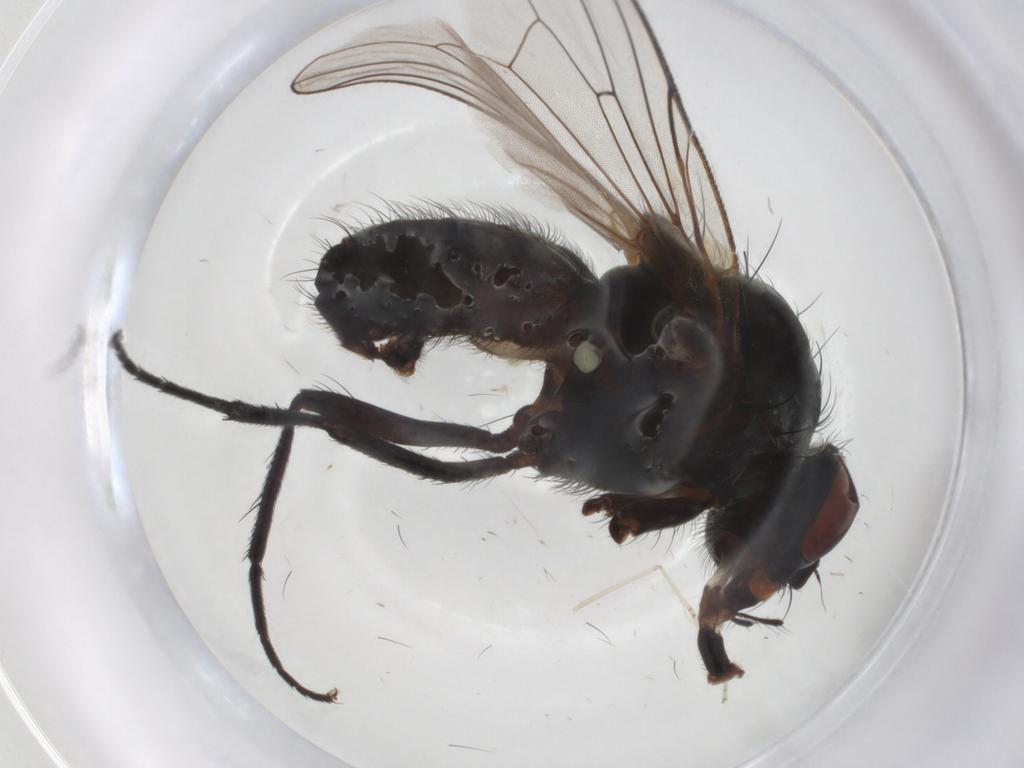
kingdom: Animalia
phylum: Arthropoda
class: Insecta
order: Diptera
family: Anthomyiidae
